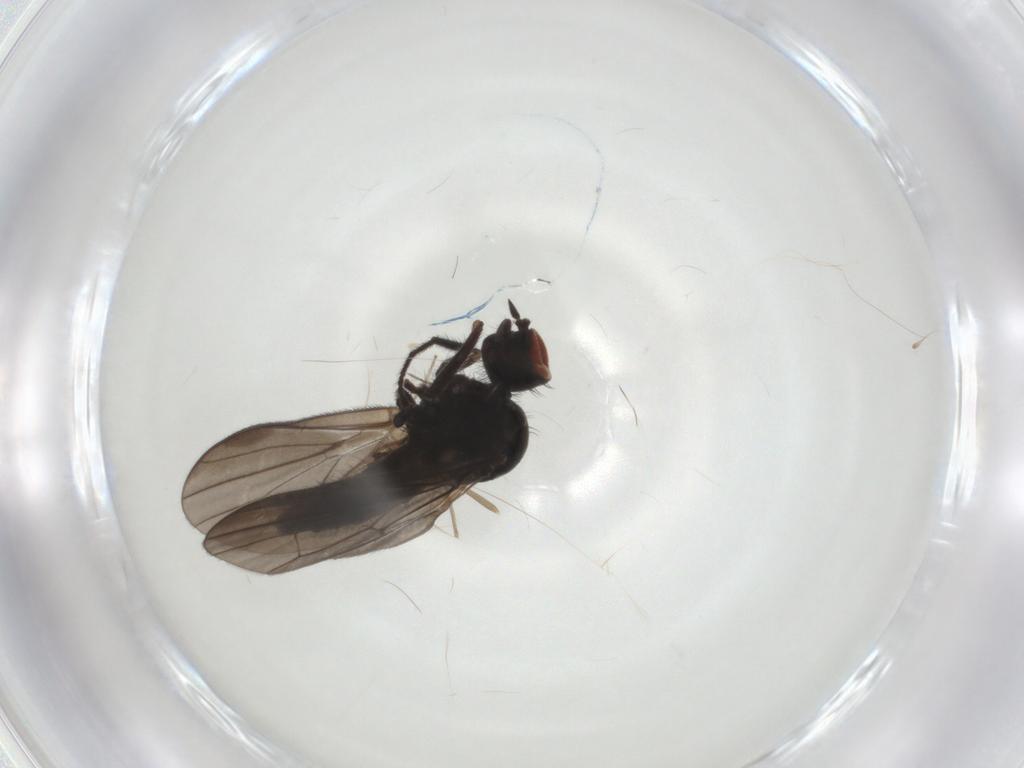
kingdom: Animalia
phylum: Arthropoda
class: Insecta
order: Diptera
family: Hybotidae
